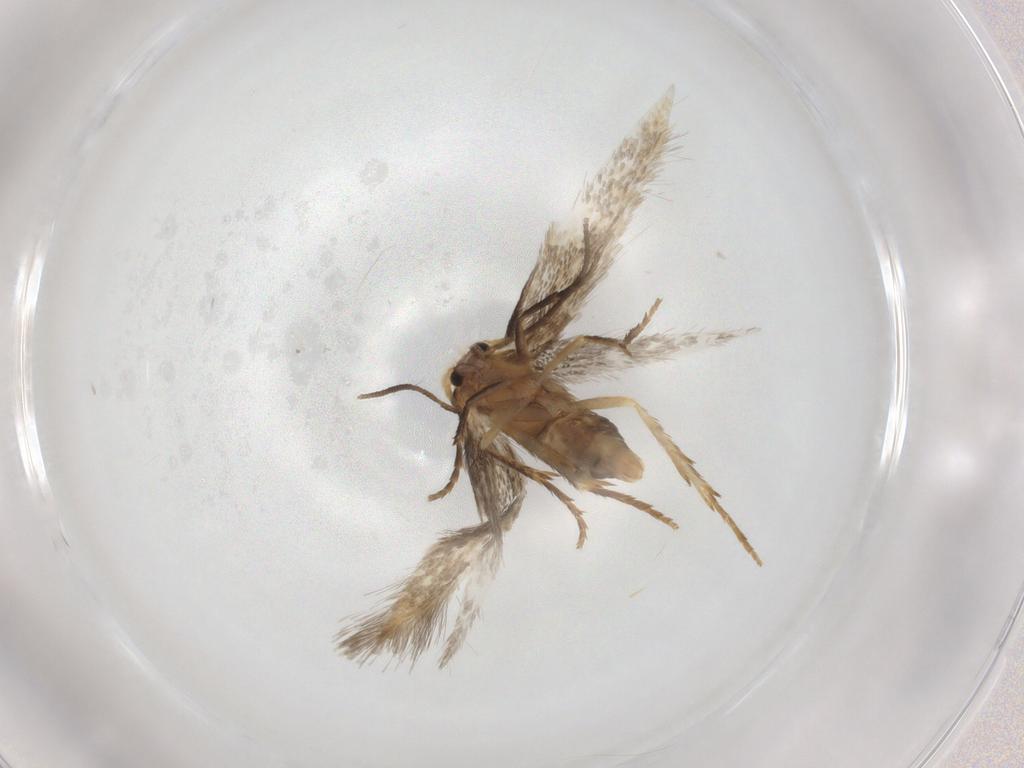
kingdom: Animalia
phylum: Arthropoda
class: Insecta
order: Lepidoptera
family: Nepticulidae
